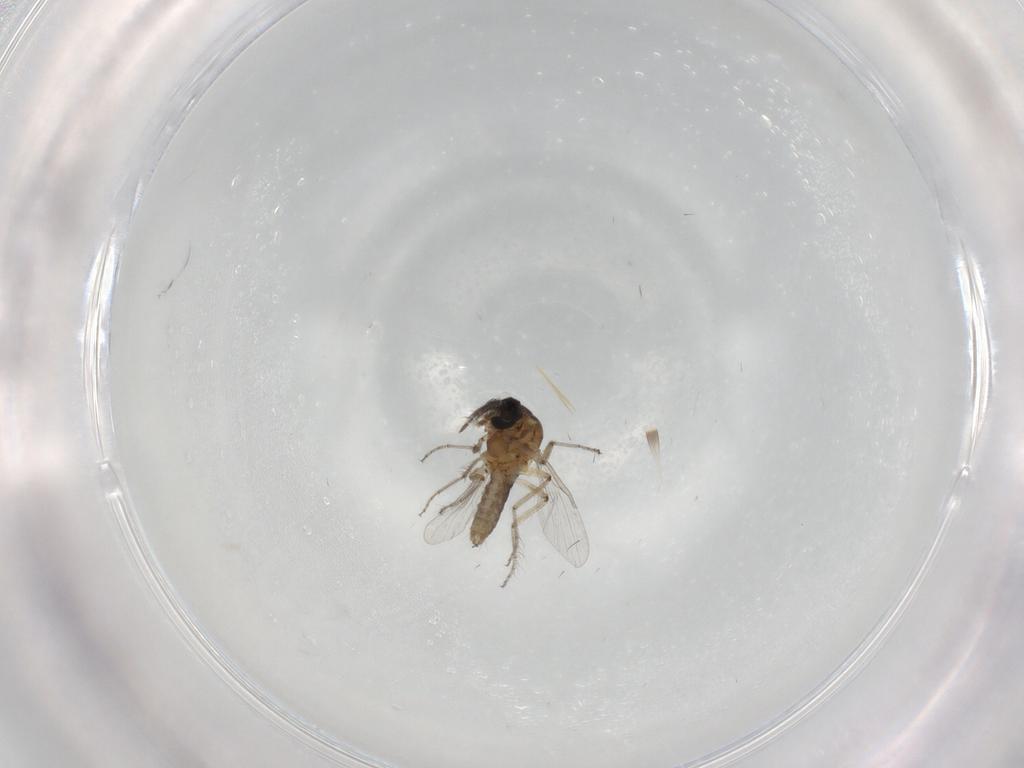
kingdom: Animalia
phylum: Arthropoda
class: Insecta
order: Diptera
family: Ceratopogonidae
